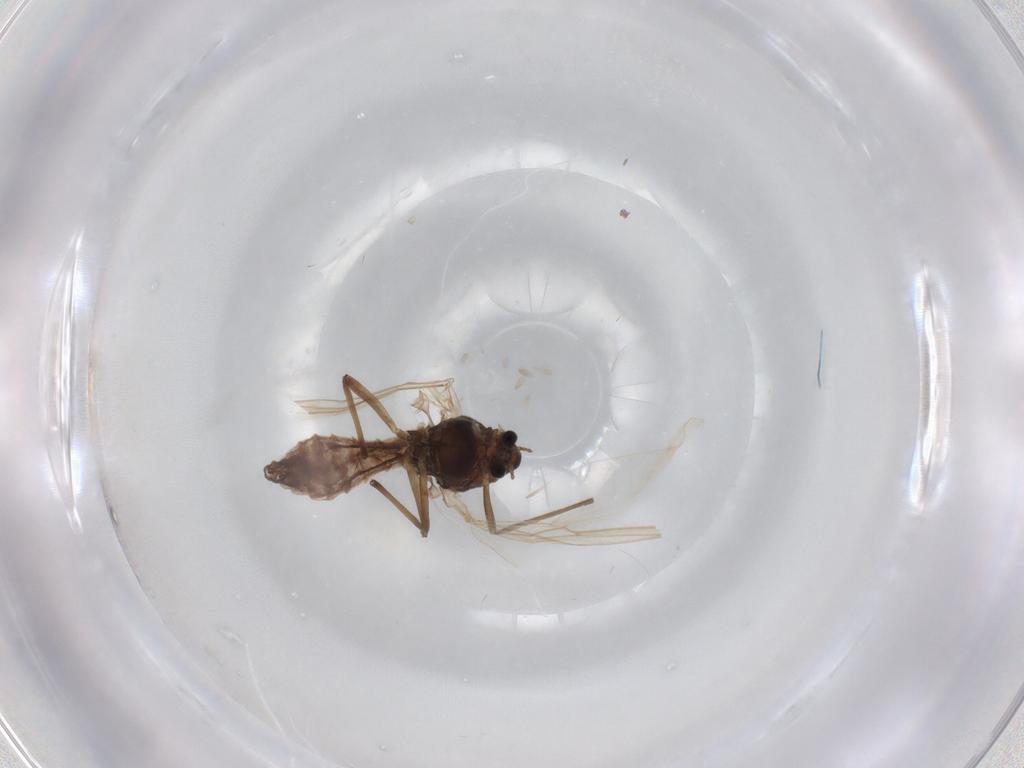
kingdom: Animalia
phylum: Arthropoda
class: Insecta
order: Diptera
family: Chironomidae
